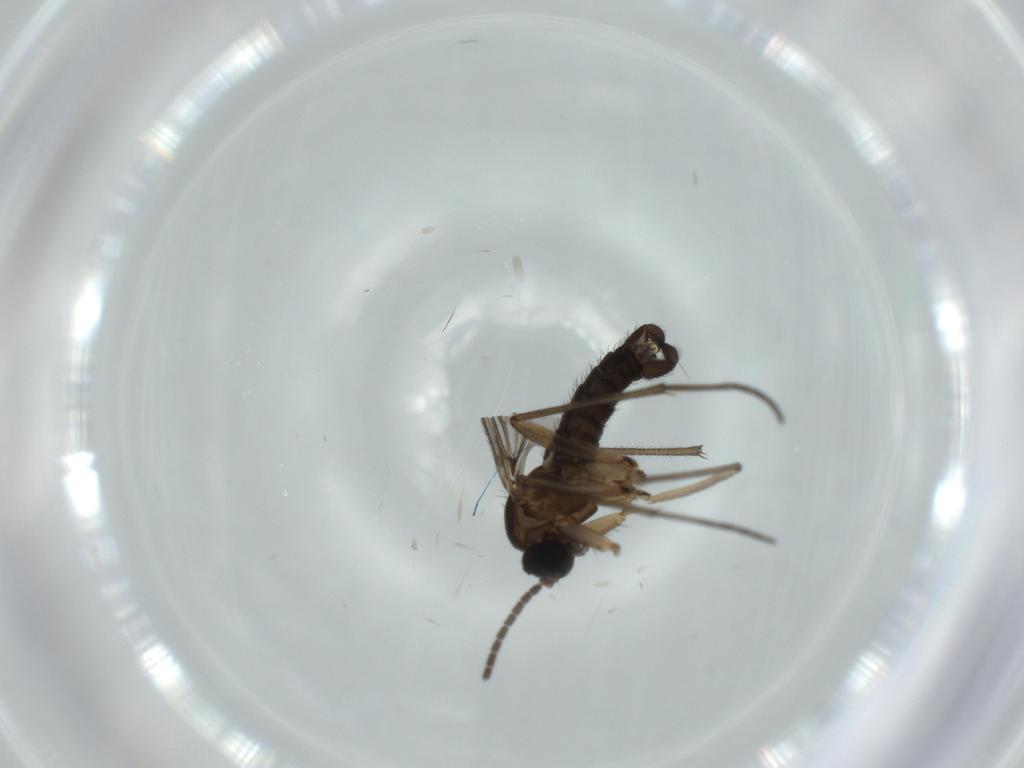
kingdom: Animalia
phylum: Arthropoda
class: Insecta
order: Diptera
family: Sciaridae
